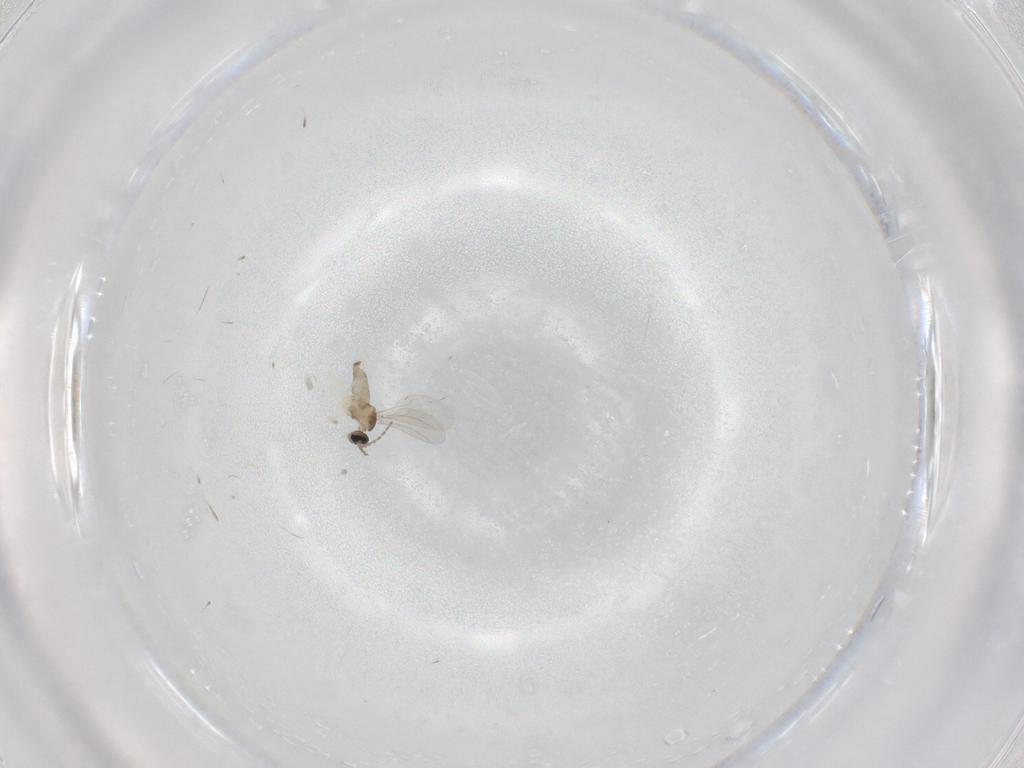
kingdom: Animalia
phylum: Arthropoda
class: Insecta
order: Diptera
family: Cecidomyiidae
